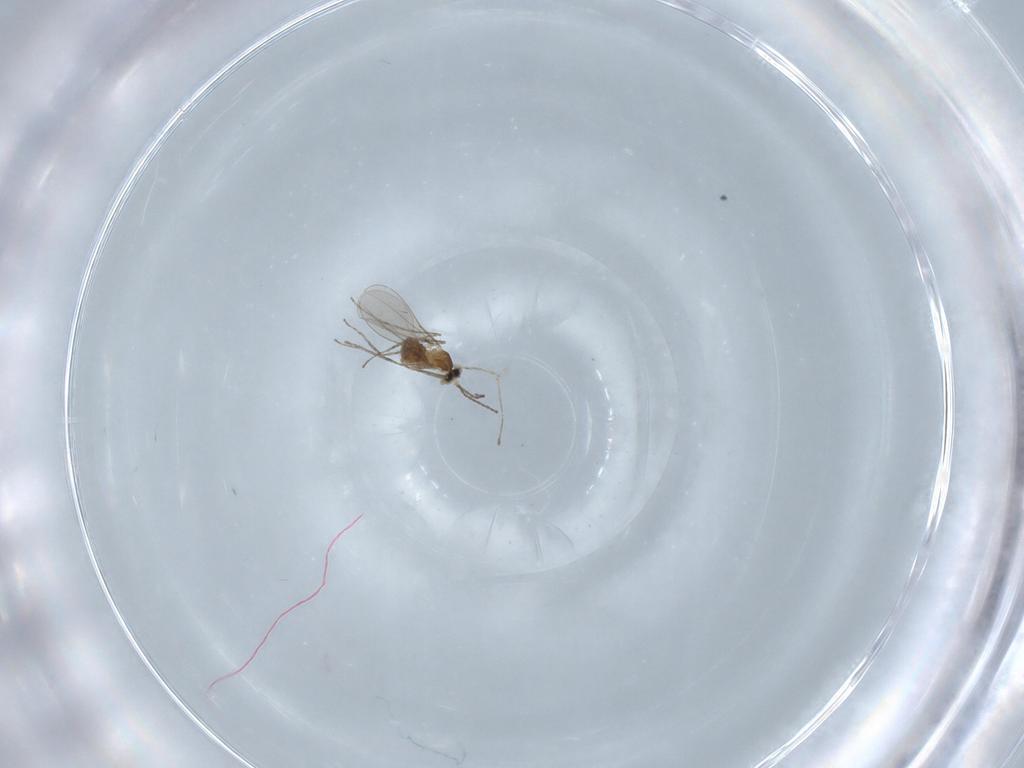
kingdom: Animalia
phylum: Arthropoda
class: Insecta
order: Diptera
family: Cecidomyiidae
